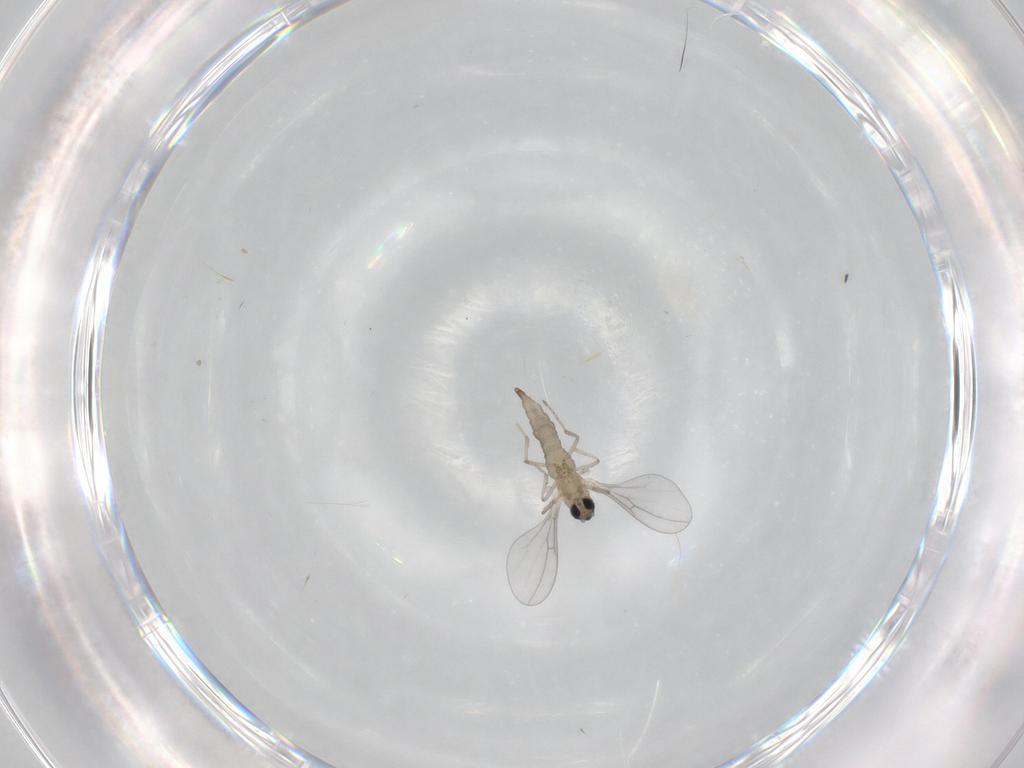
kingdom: Animalia
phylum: Arthropoda
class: Insecta
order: Diptera
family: Cecidomyiidae
